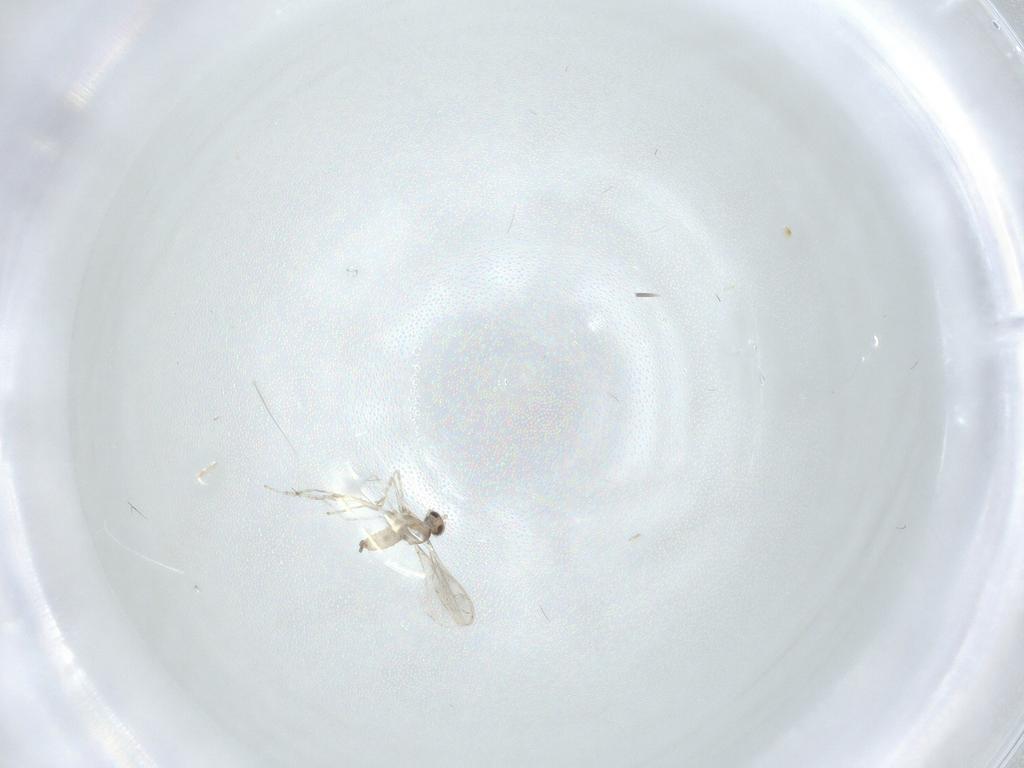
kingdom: Animalia
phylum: Arthropoda
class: Insecta
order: Diptera
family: Cecidomyiidae
